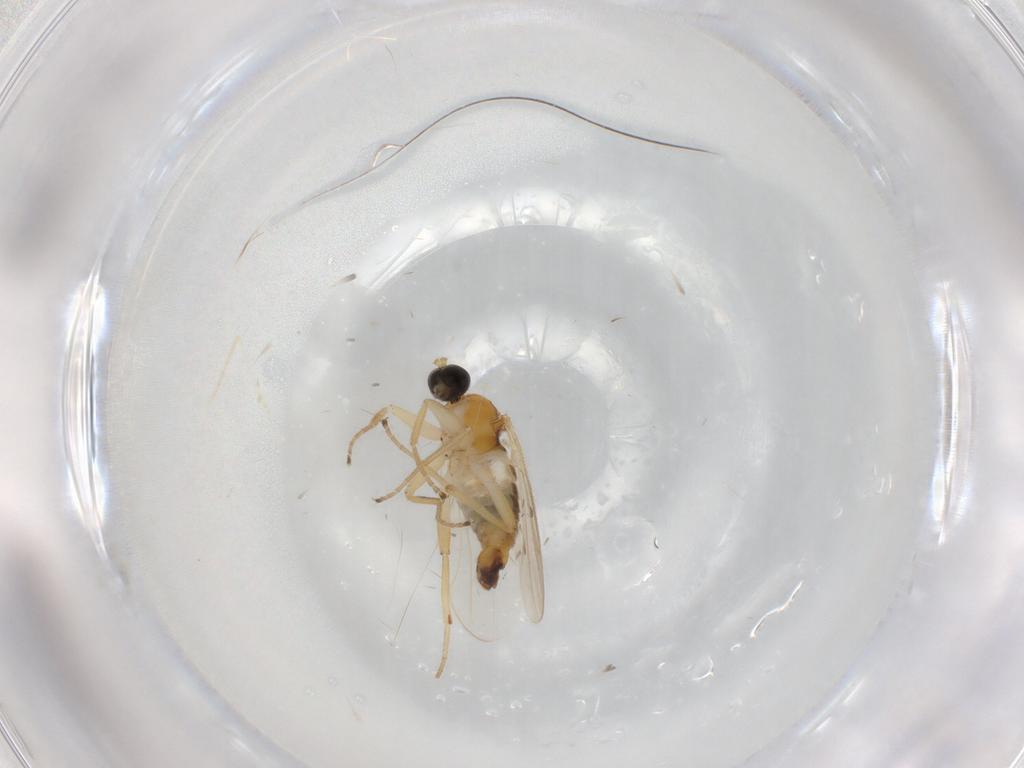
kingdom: Animalia
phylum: Arthropoda
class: Insecta
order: Diptera
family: Hybotidae
